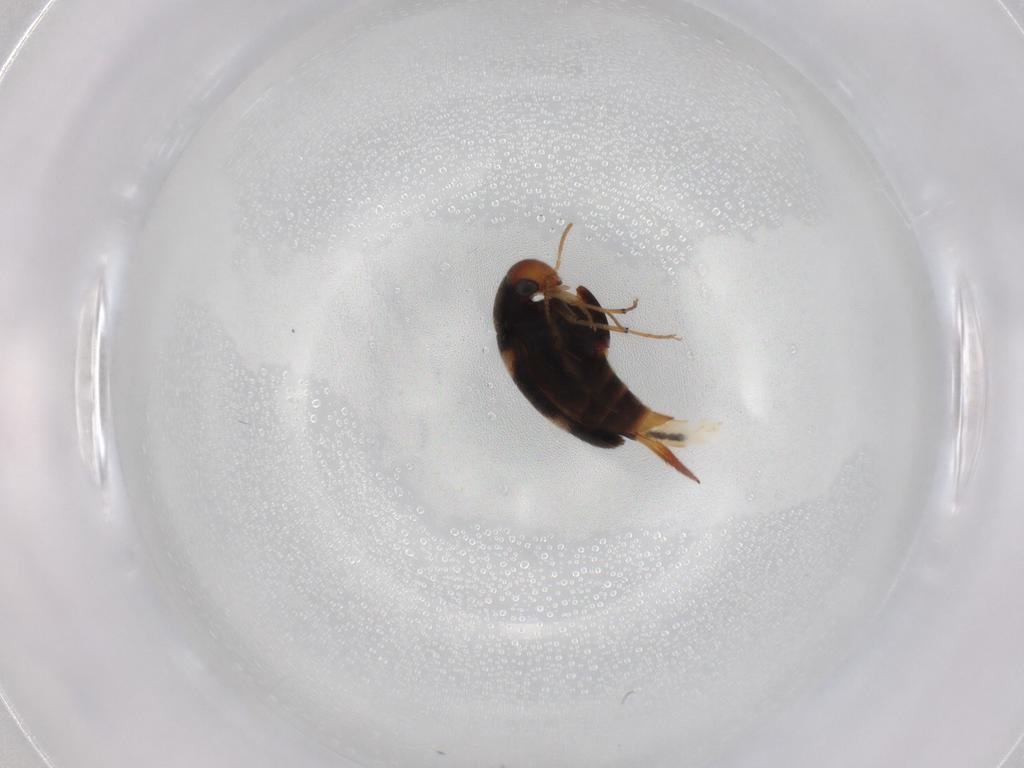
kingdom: Animalia
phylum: Arthropoda
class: Insecta
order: Coleoptera
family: Mordellidae
